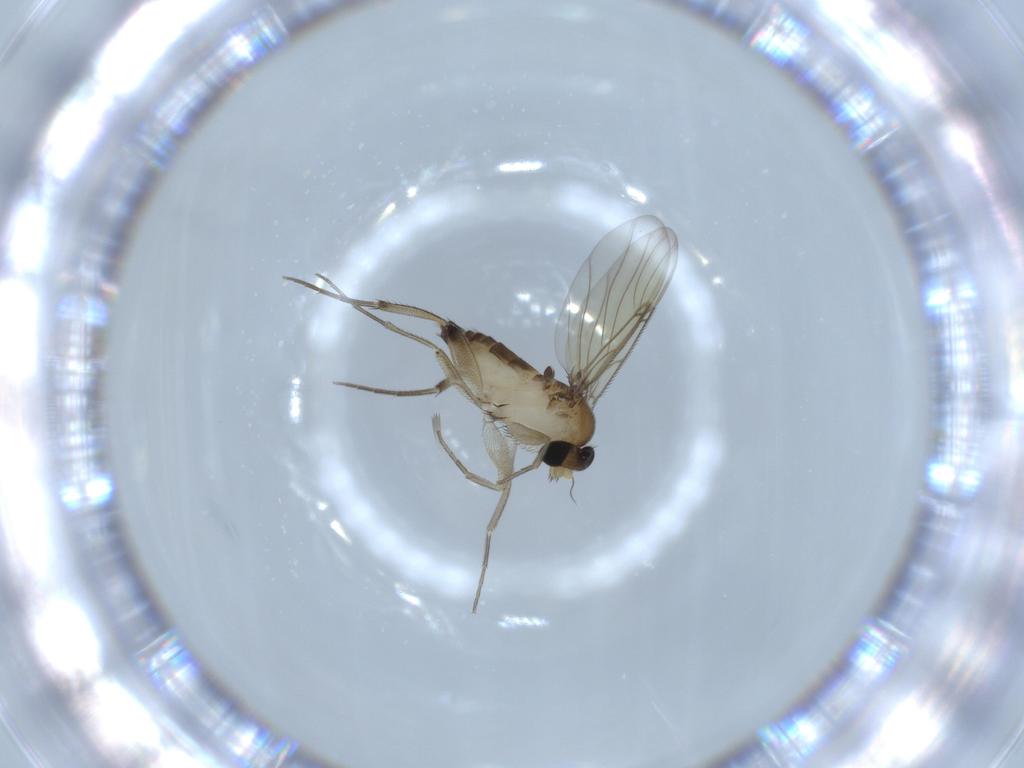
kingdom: Animalia
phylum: Arthropoda
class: Insecta
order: Diptera
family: Phoridae
